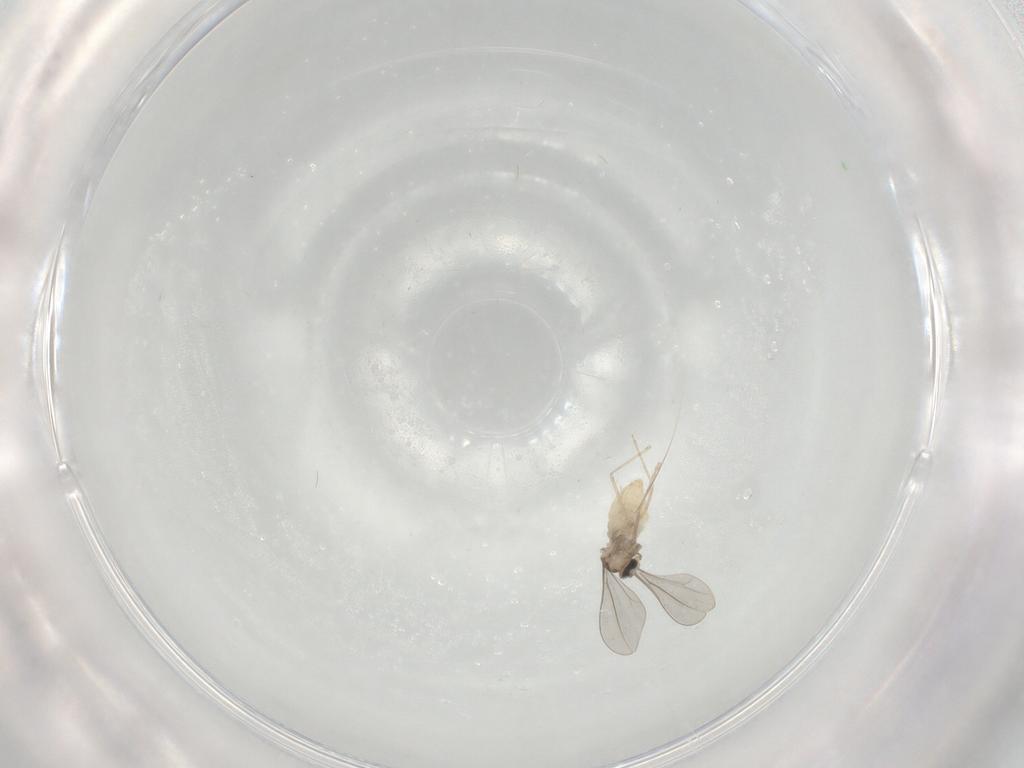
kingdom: Animalia
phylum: Arthropoda
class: Insecta
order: Diptera
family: Cecidomyiidae
